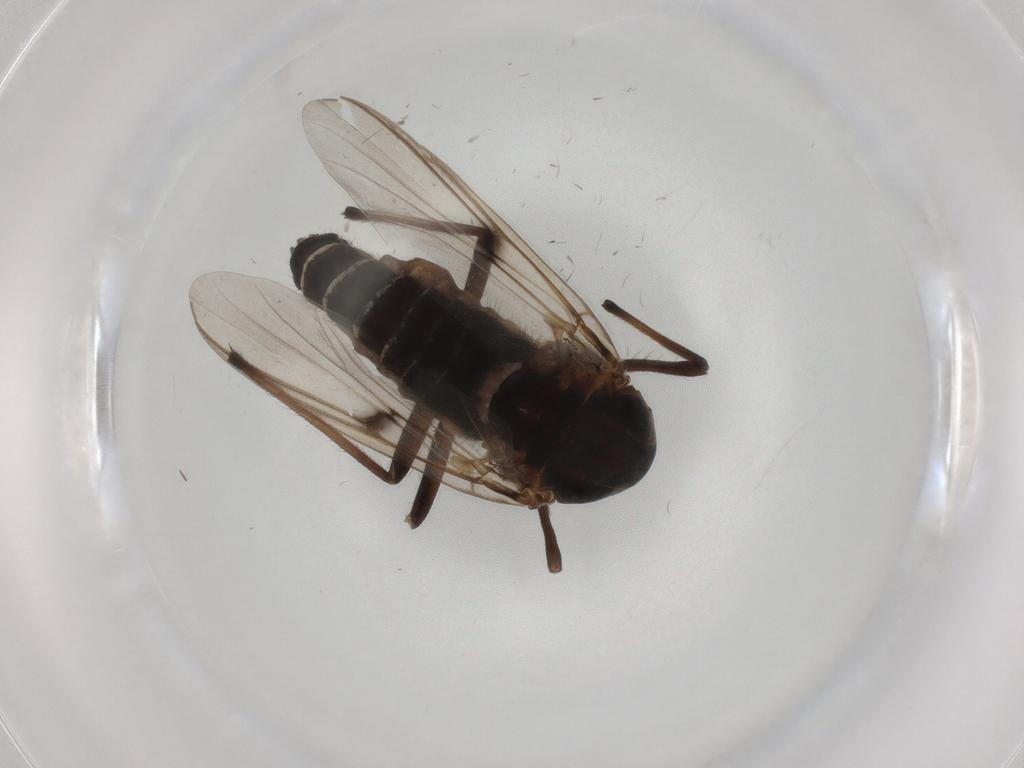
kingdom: Animalia
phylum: Arthropoda
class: Insecta
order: Diptera
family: Chironomidae
